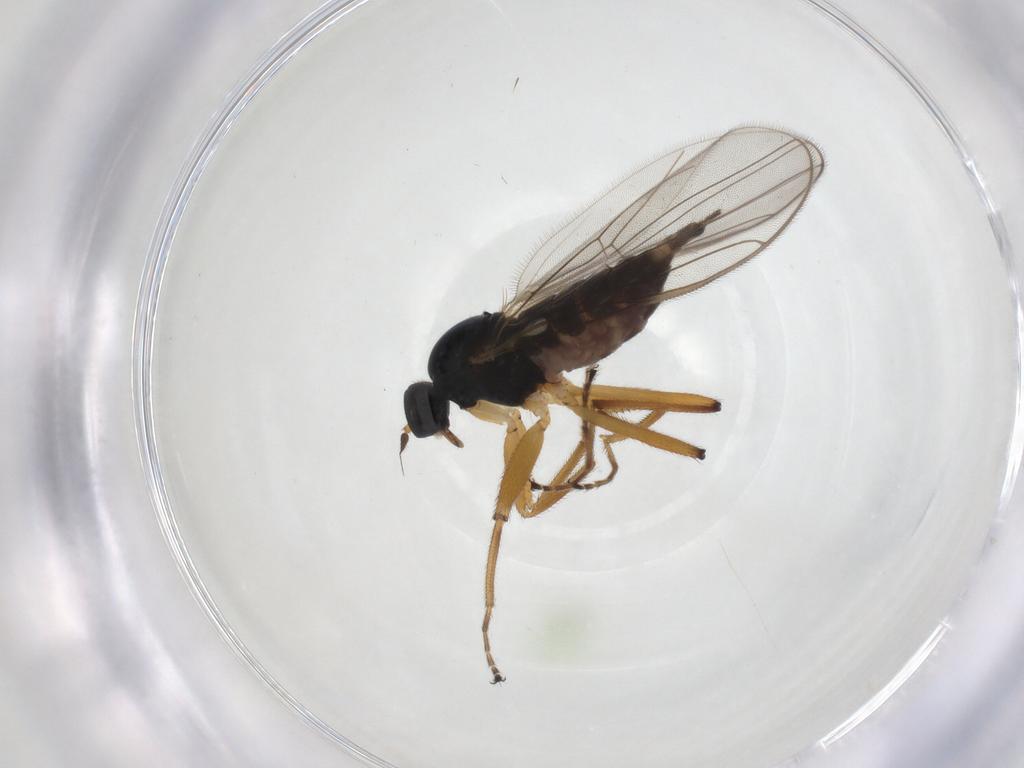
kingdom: Animalia
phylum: Arthropoda
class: Insecta
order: Diptera
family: Hybotidae
